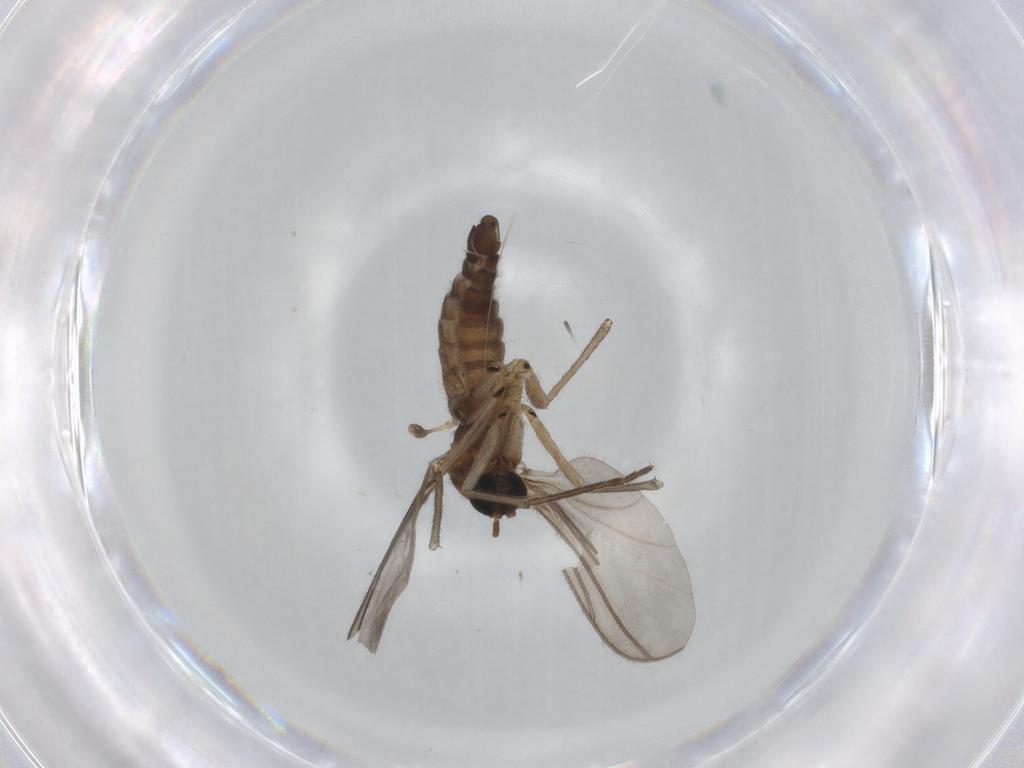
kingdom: Animalia
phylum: Arthropoda
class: Insecta
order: Diptera
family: Sciaridae
